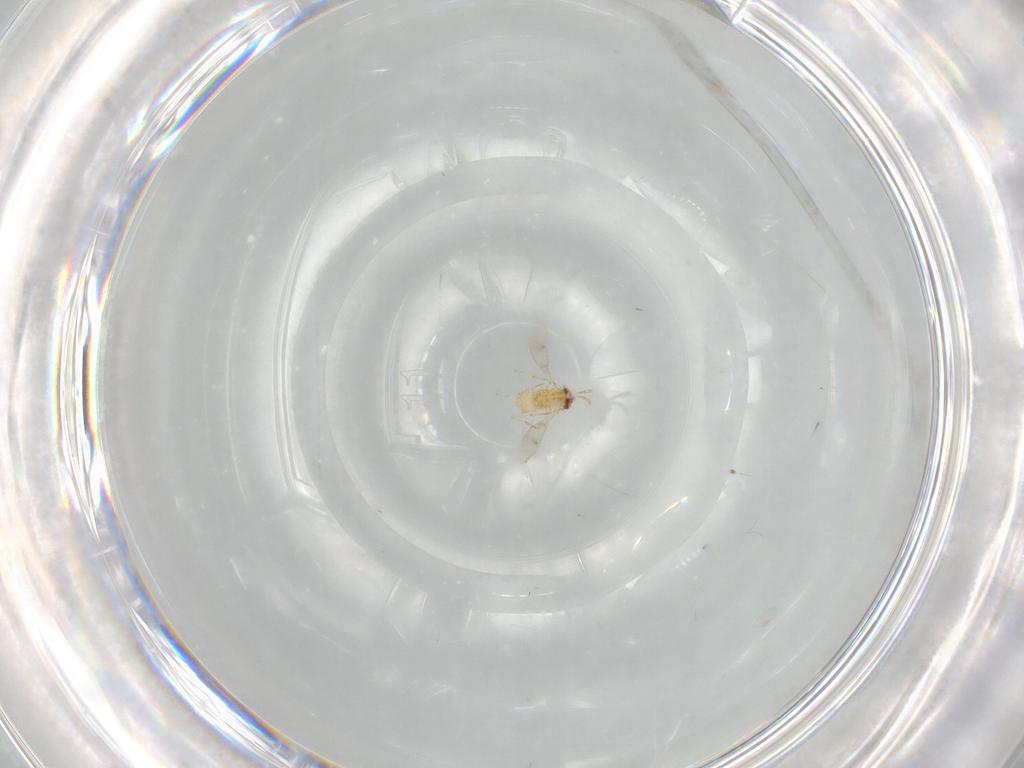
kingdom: Animalia
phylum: Arthropoda
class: Insecta
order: Hymenoptera
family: Aphelinidae
